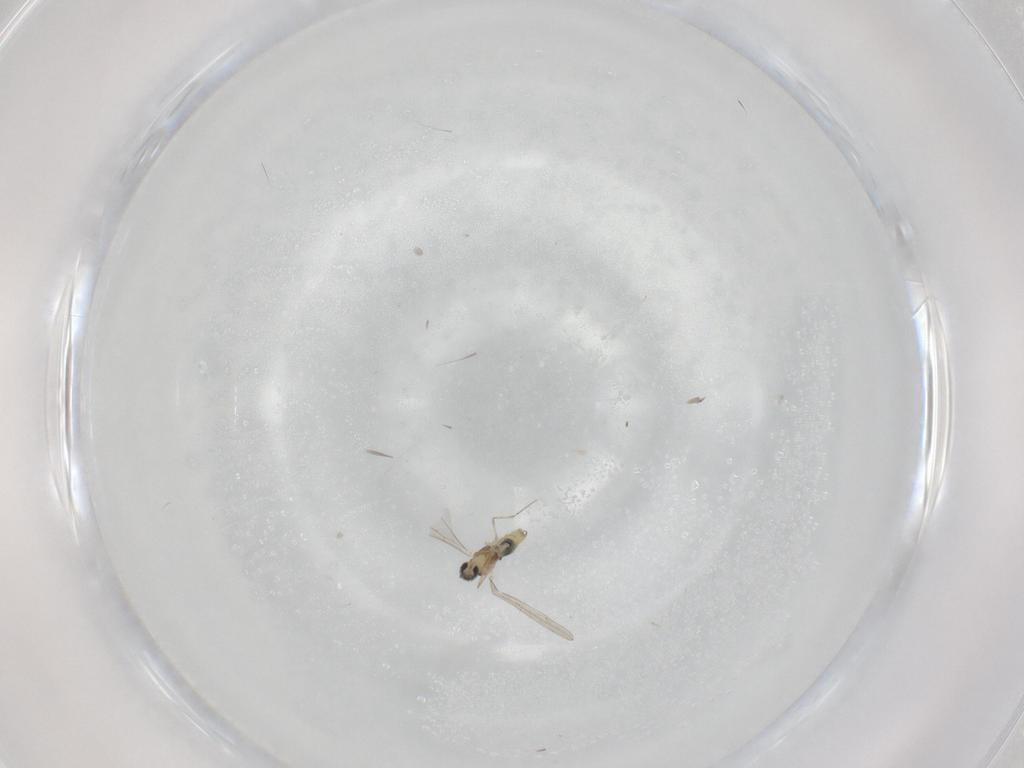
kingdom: Animalia
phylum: Arthropoda
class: Insecta
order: Diptera
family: Cecidomyiidae
